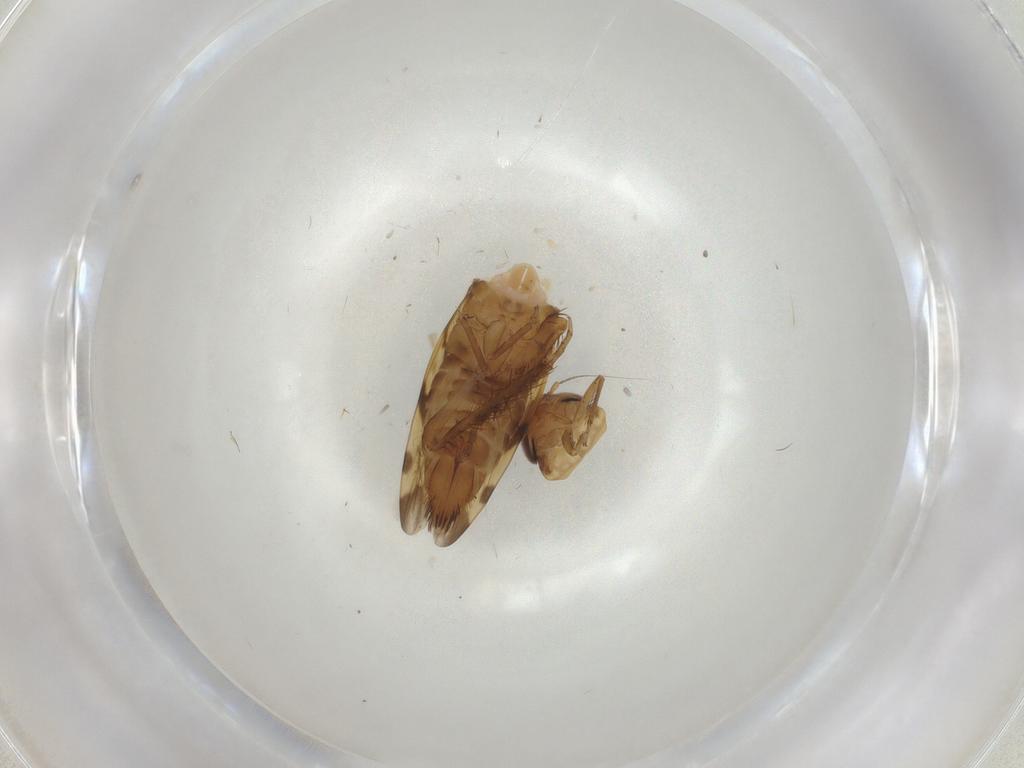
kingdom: Animalia
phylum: Arthropoda
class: Insecta
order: Hemiptera
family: Cicadellidae
